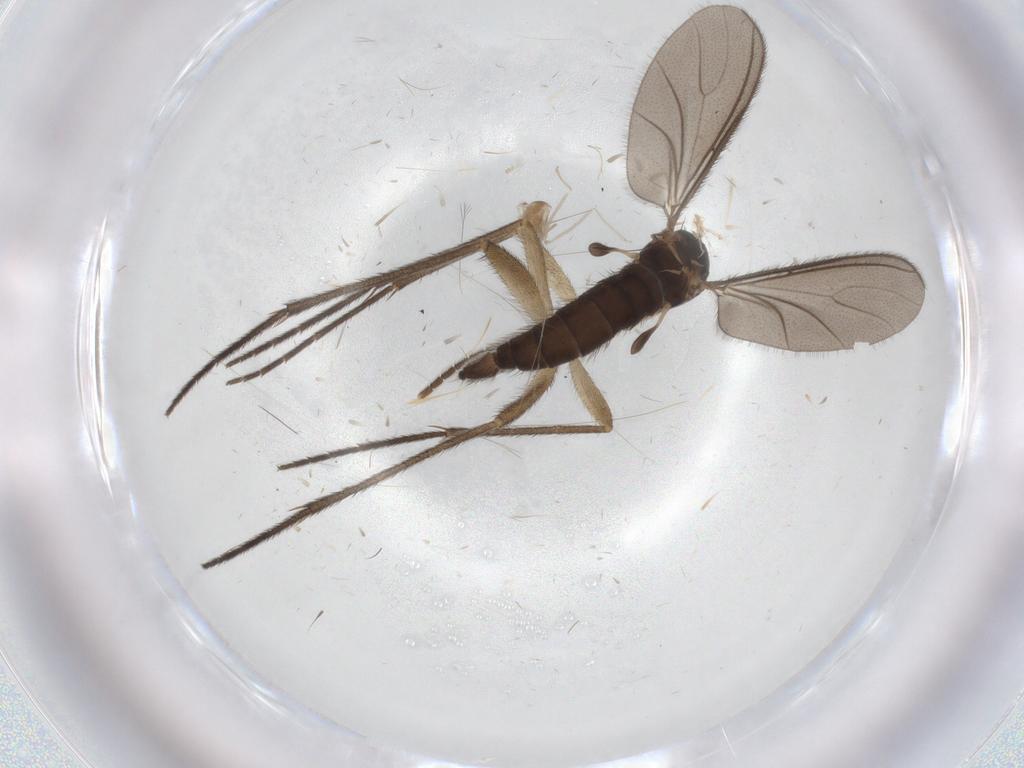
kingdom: Animalia
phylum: Arthropoda
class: Insecta
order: Diptera
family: Sciaridae
